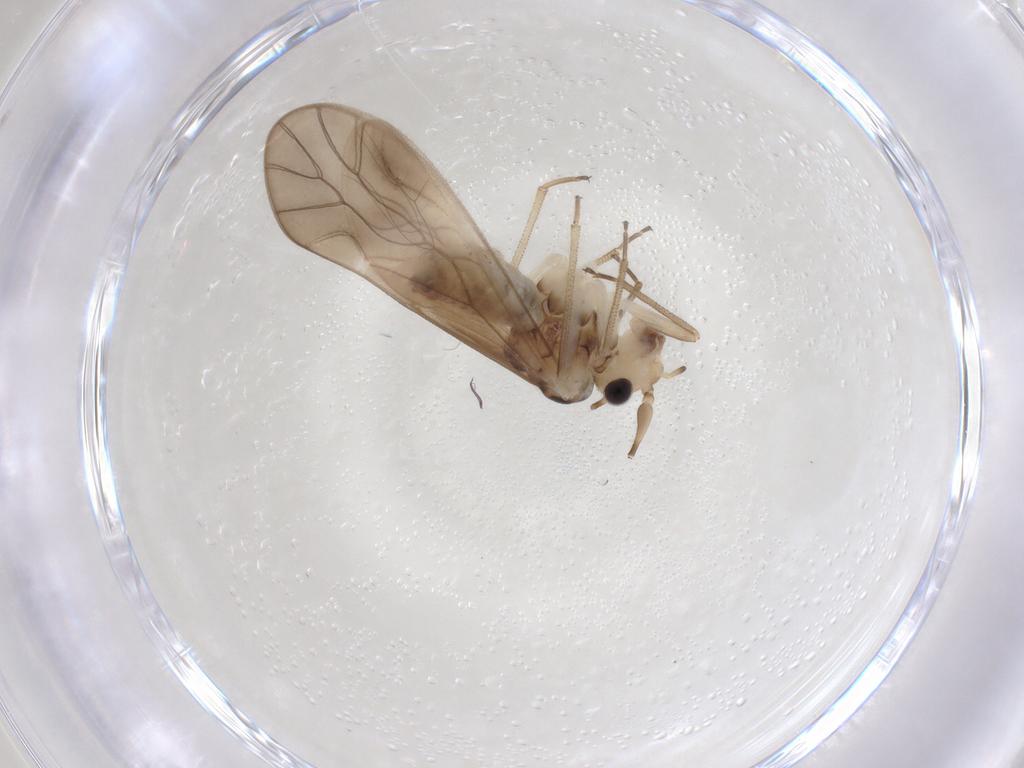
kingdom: Animalia
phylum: Arthropoda
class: Insecta
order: Psocodea
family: Caeciliusidae
